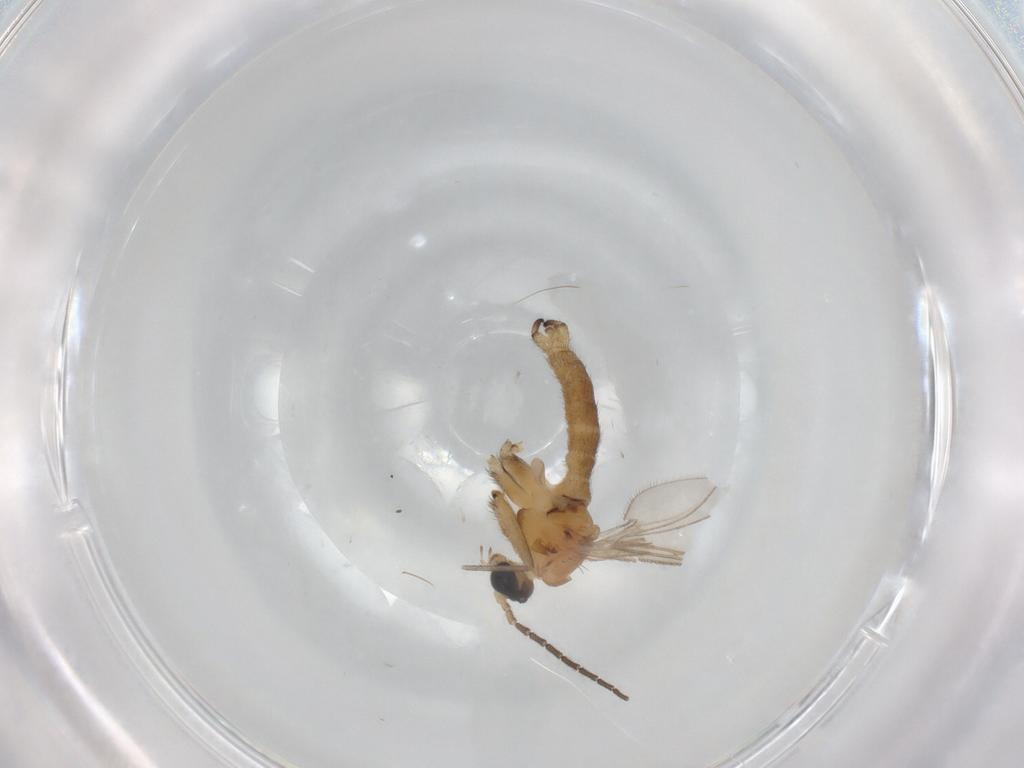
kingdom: Animalia
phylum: Arthropoda
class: Insecta
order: Diptera
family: Sciaridae
